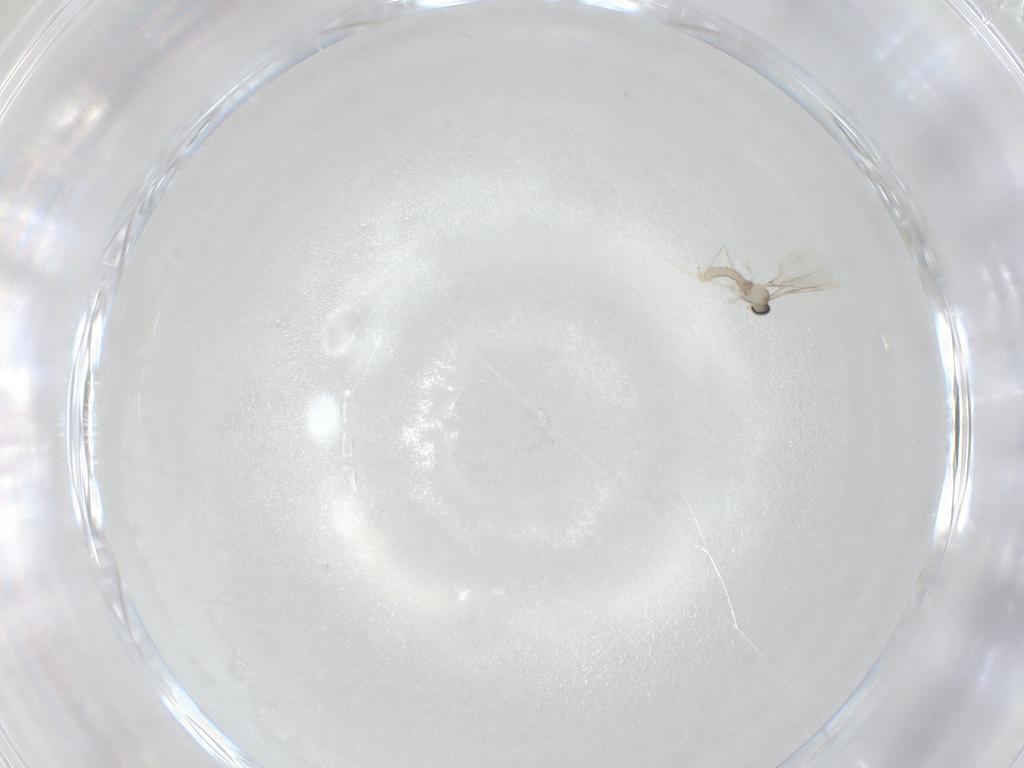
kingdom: Animalia
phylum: Arthropoda
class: Insecta
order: Diptera
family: Cecidomyiidae
